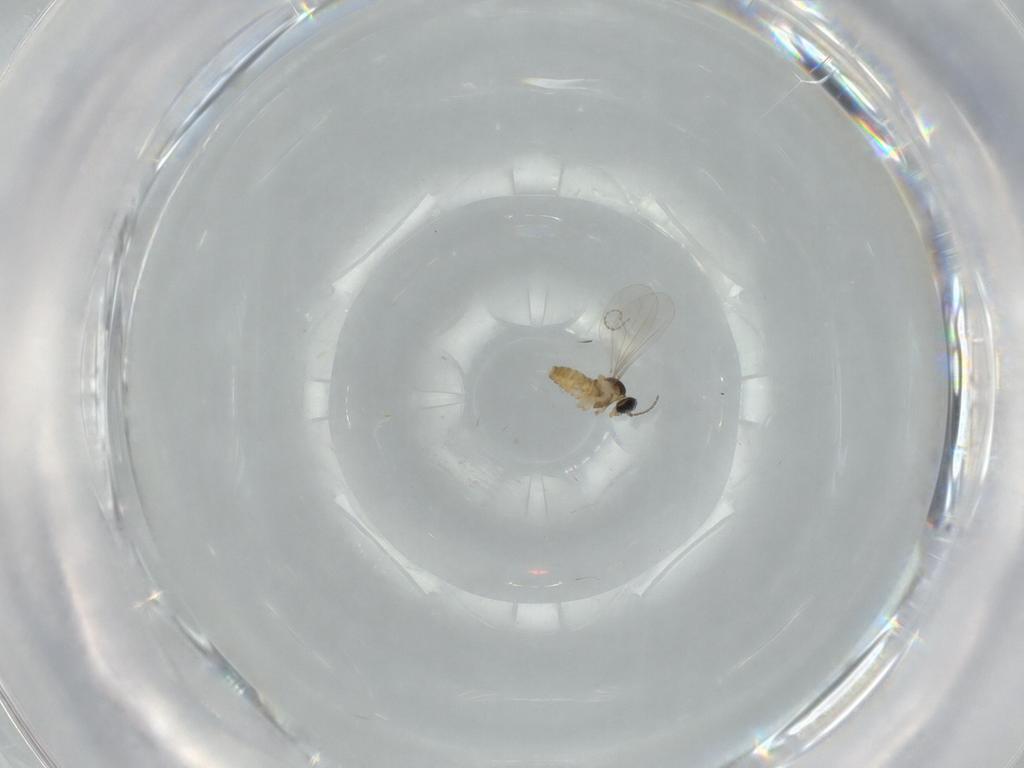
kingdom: Animalia
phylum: Arthropoda
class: Insecta
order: Diptera
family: Cecidomyiidae
